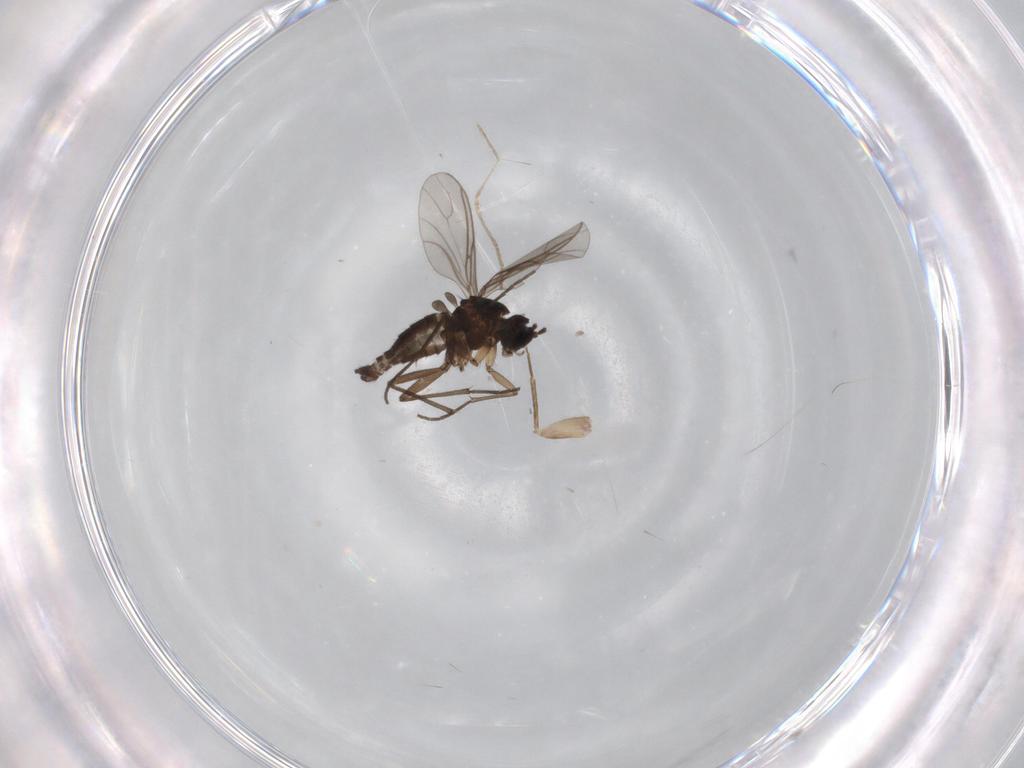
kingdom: Animalia
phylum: Arthropoda
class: Insecta
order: Diptera
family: Sciaridae
